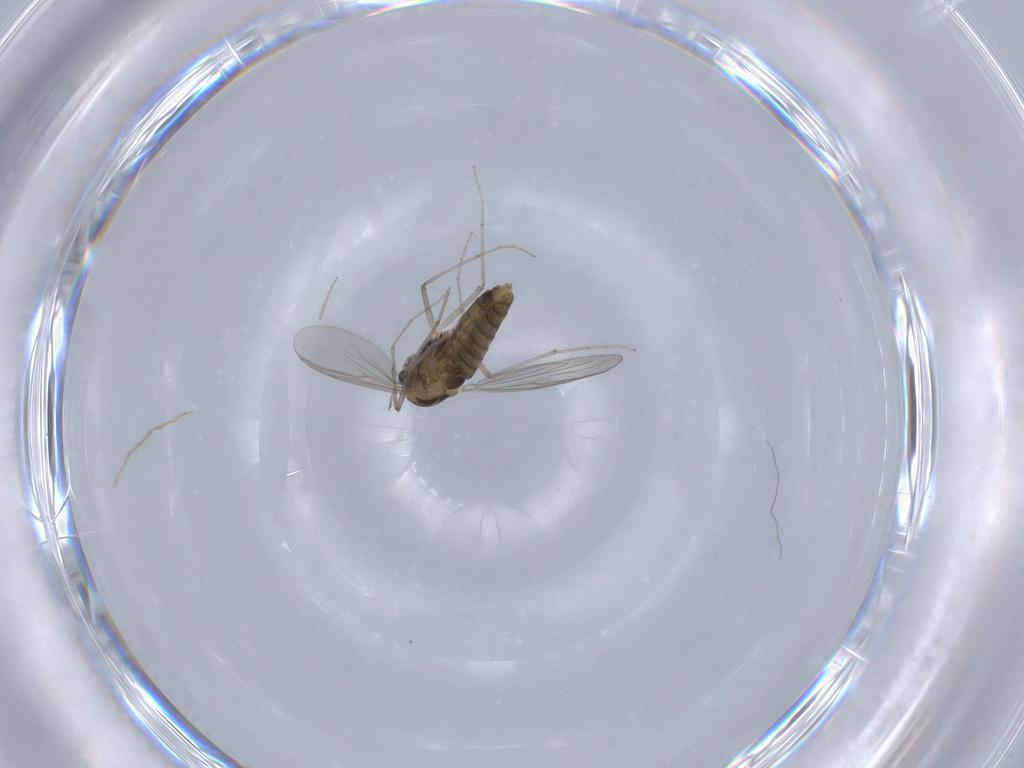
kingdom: Animalia
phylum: Arthropoda
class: Insecta
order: Diptera
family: Chironomidae
